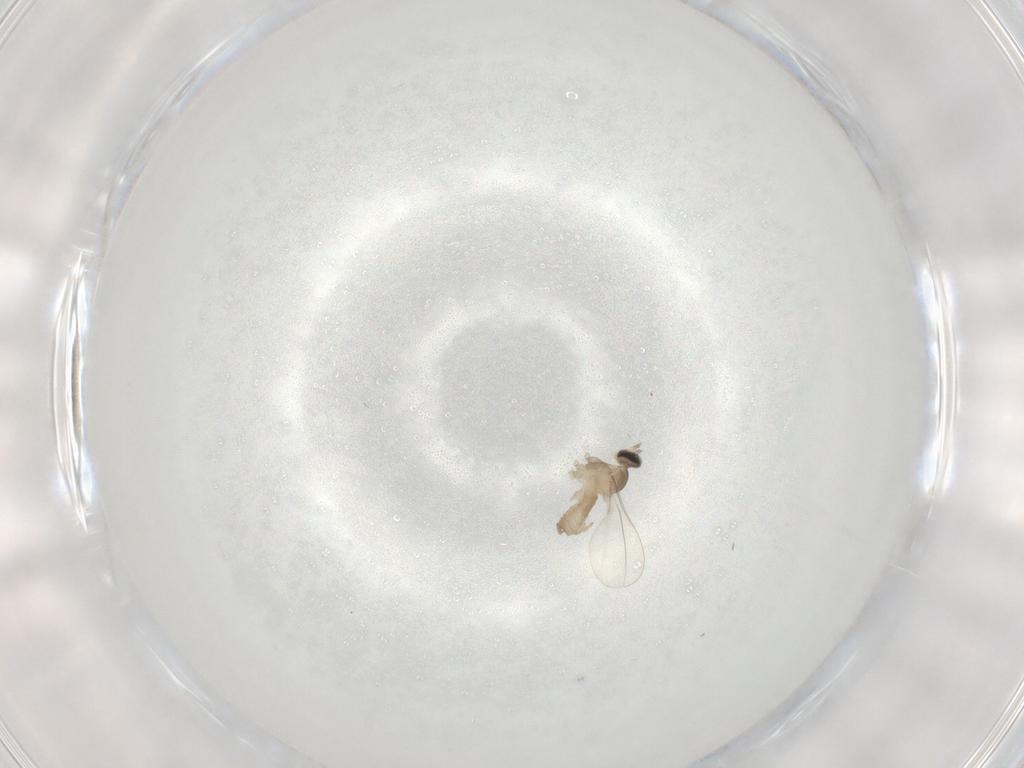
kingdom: Animalia
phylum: Arthropoda
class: Insecta
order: Diptera
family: Cecidomyiidae
